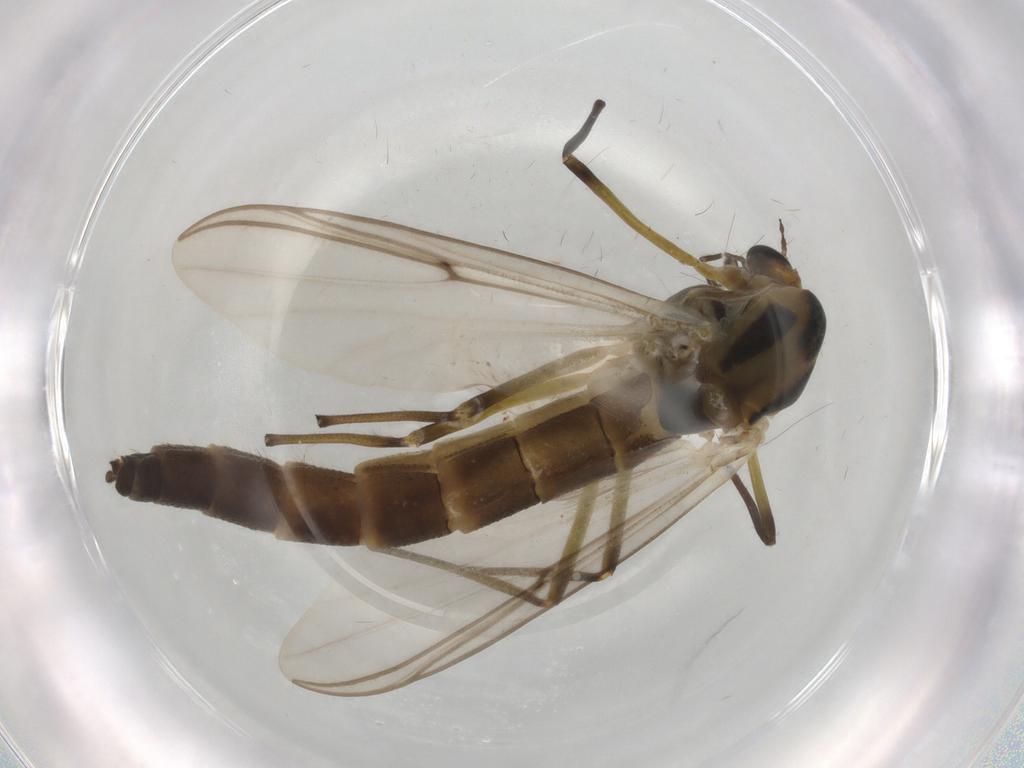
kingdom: Animalia
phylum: Arthropoda
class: Insecta
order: Diptera
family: Chironomidae
